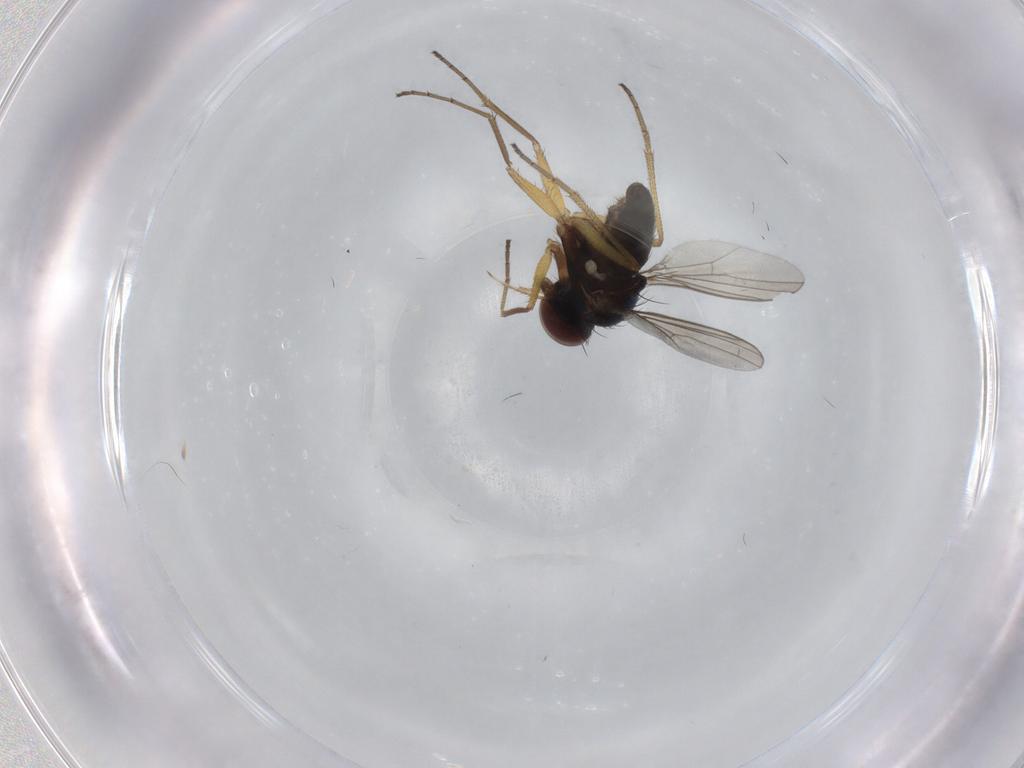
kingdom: Animalia
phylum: Arthropoda
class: Insecta
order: Diptera
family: Dolichopodidae
